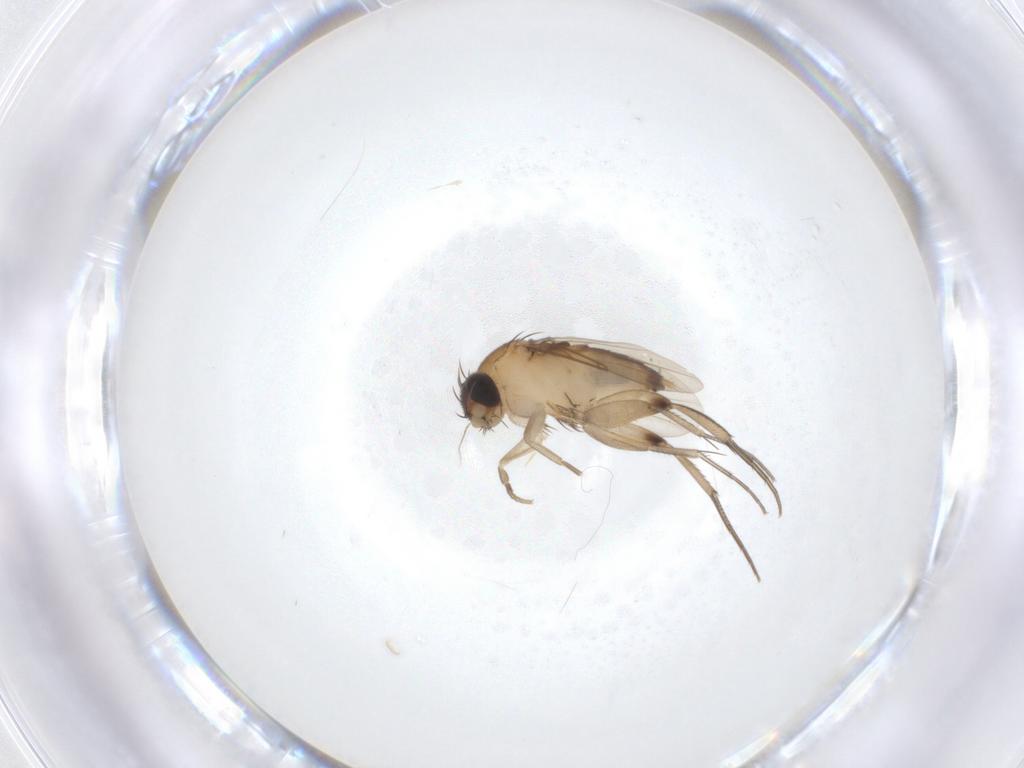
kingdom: Animalia
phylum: Arthropoda
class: Insecta
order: Diptera
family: Phoridae
